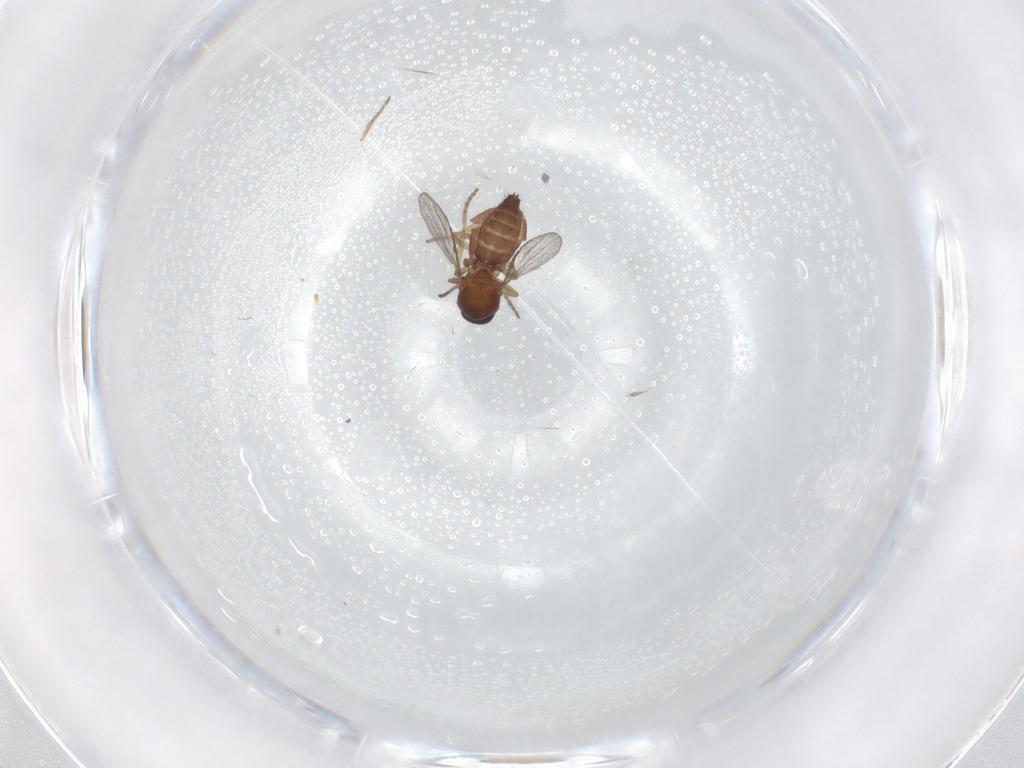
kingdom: Animalia
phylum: Arthropoda
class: Insecta
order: Diptera
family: Ceratopogonidae
